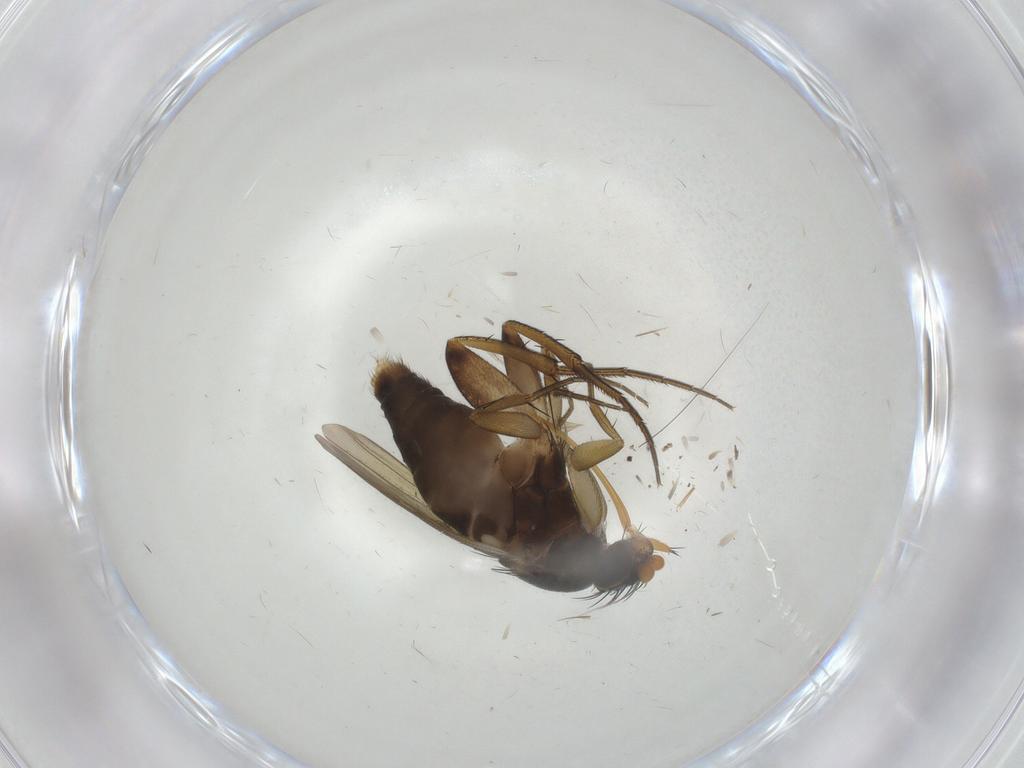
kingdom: Animalia
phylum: Arthropoda
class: Insecta
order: Diptera
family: Phoridae
